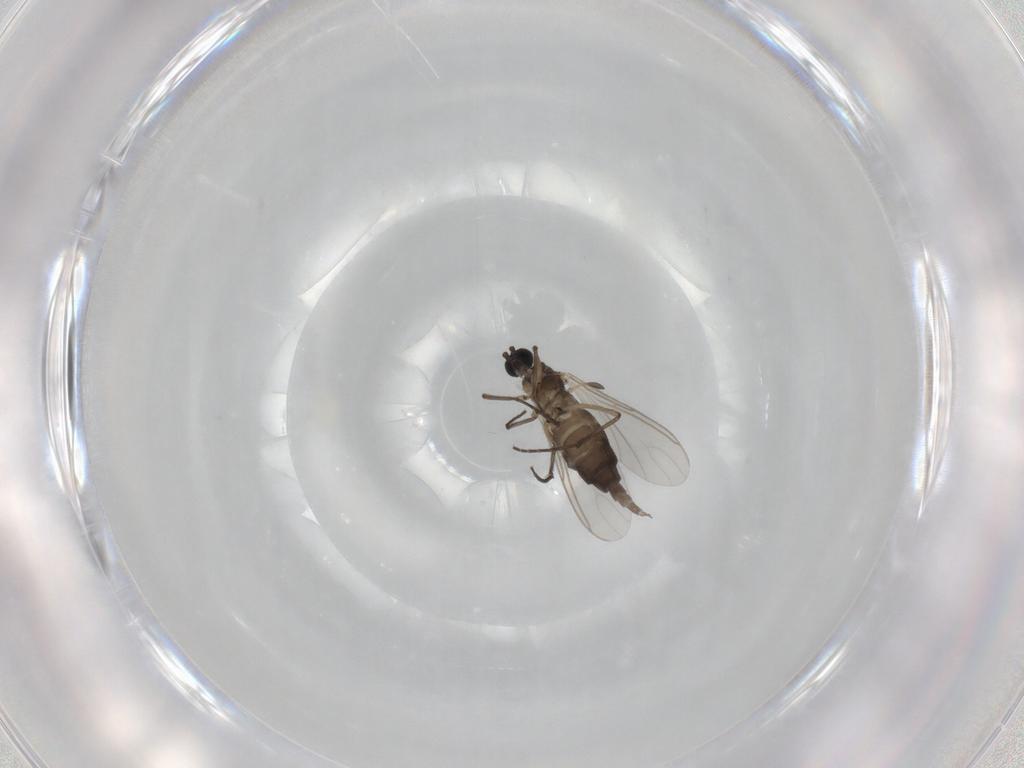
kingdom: Animalia
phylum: Arthropoda
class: Insecta
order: Diptera
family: Sciaridae
